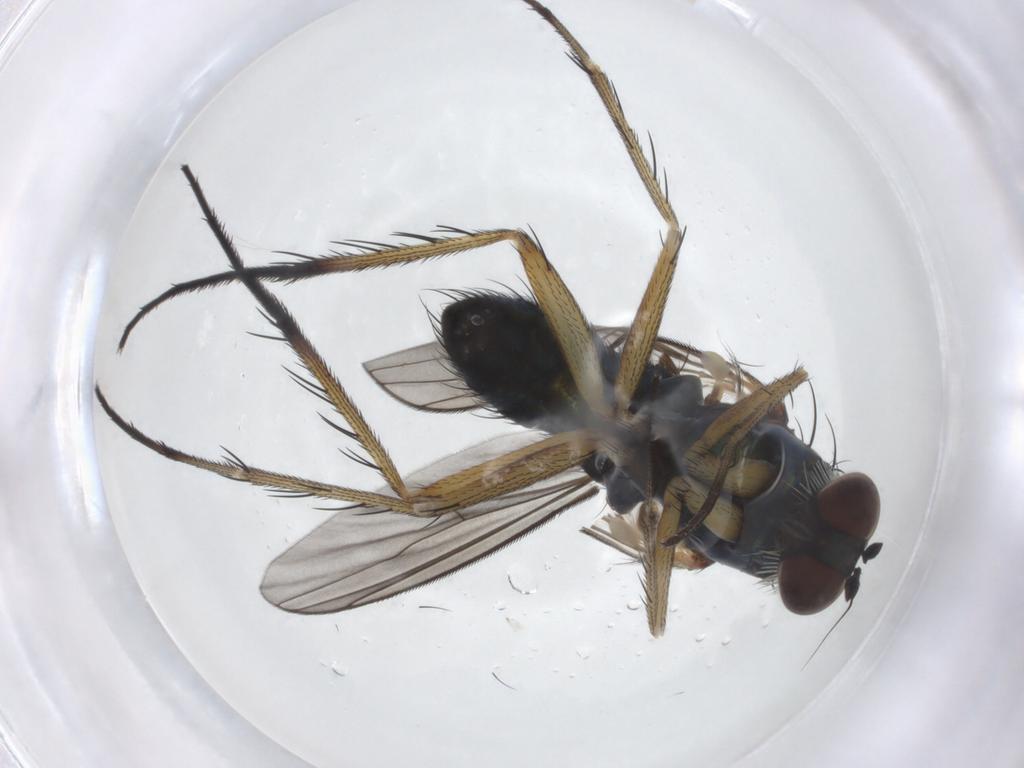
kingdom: Animalia
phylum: Arthropoda
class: Insecta
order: Diptera
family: Dolichopodidae
